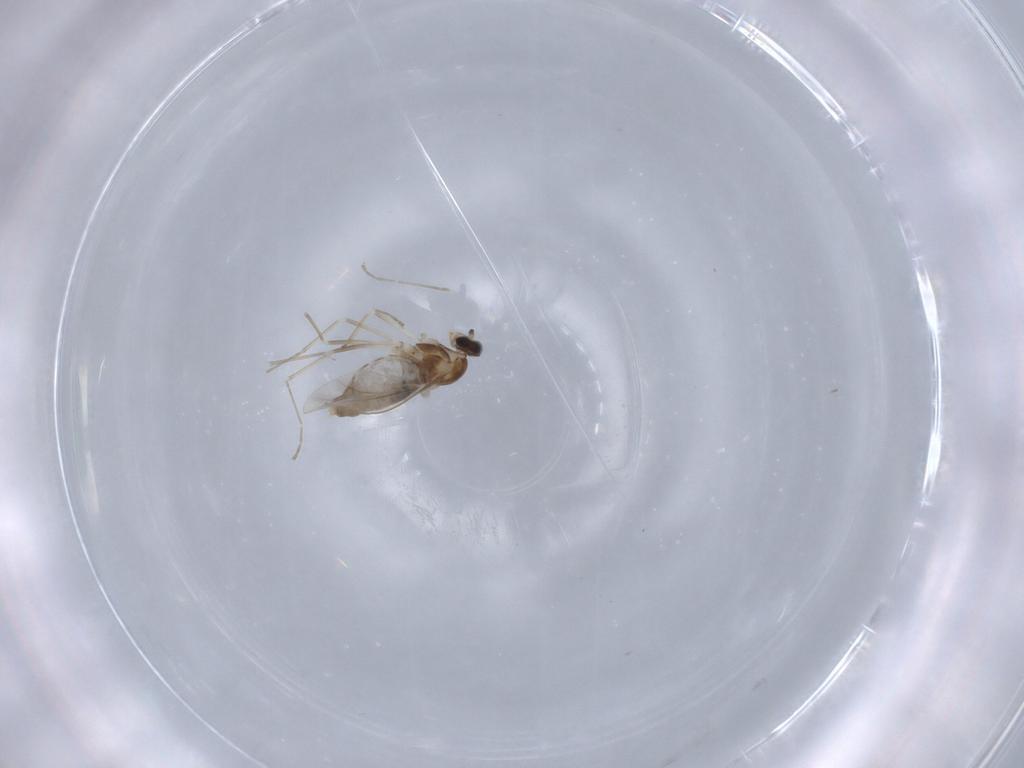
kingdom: Animalia
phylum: Arthropoda
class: Insecta
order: Diptera
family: Cecidomyiidae
